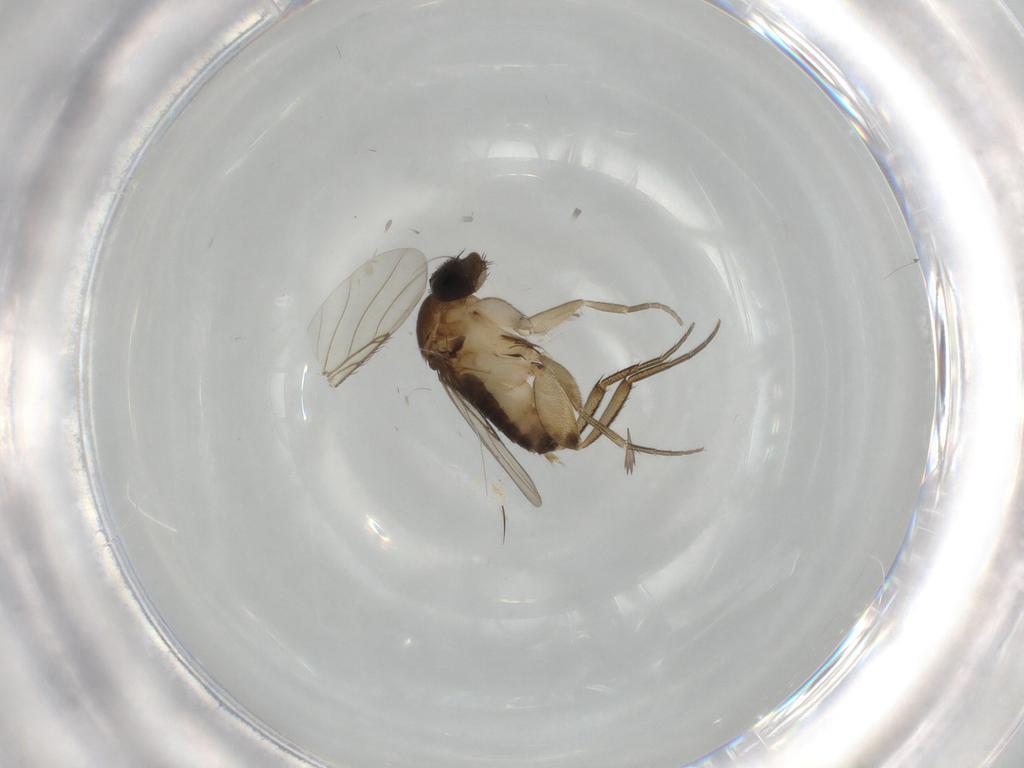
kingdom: Animalia
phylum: Arthropoda
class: Insecta
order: Diptera
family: Phoridae
